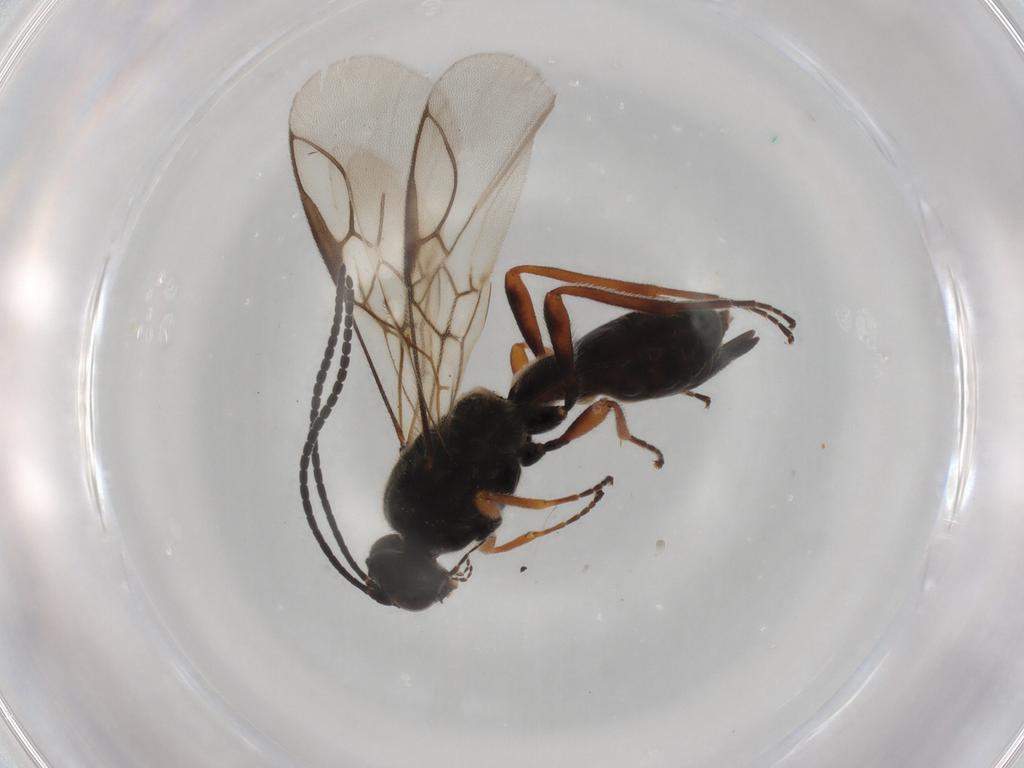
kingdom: Animalia
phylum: Arthropoda
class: Insecta
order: Hymenoptera
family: Braconidae
